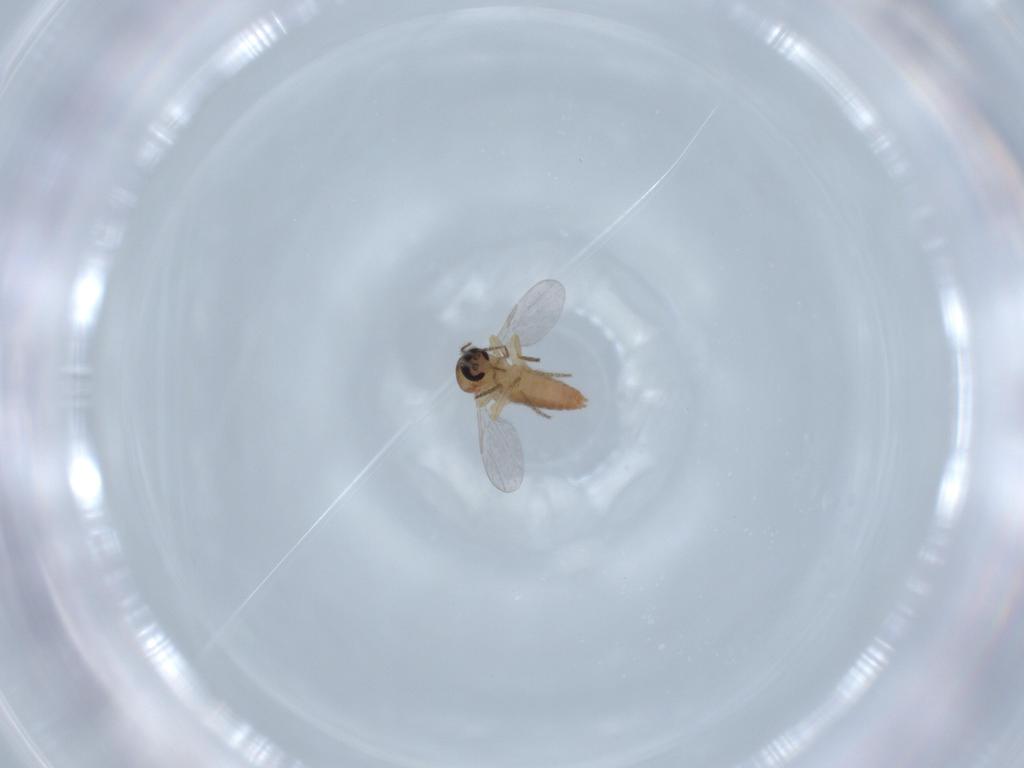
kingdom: Animalia
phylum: Arthropoda
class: Insecta
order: Diptera
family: Ceratopogonidae
